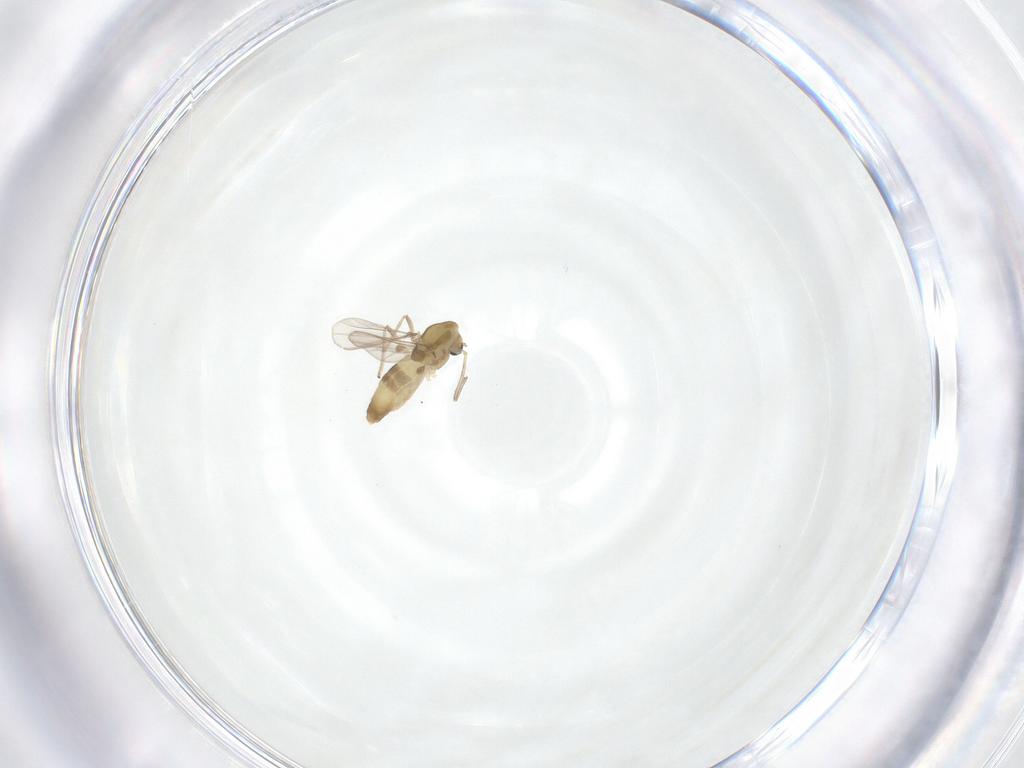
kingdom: Animalia
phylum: Arthropoda
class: Insecta
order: Diptera
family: Chironomidae
